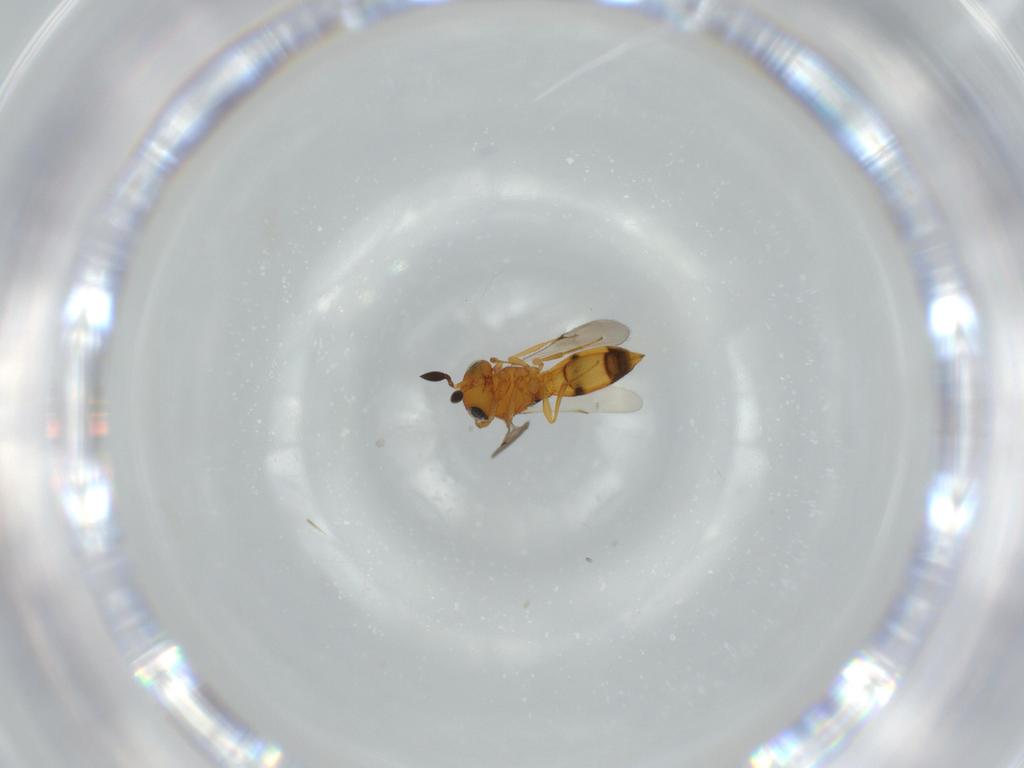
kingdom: Animalia
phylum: Arthropoda
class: Insecta
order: Hymenoptera
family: Scelionidae
